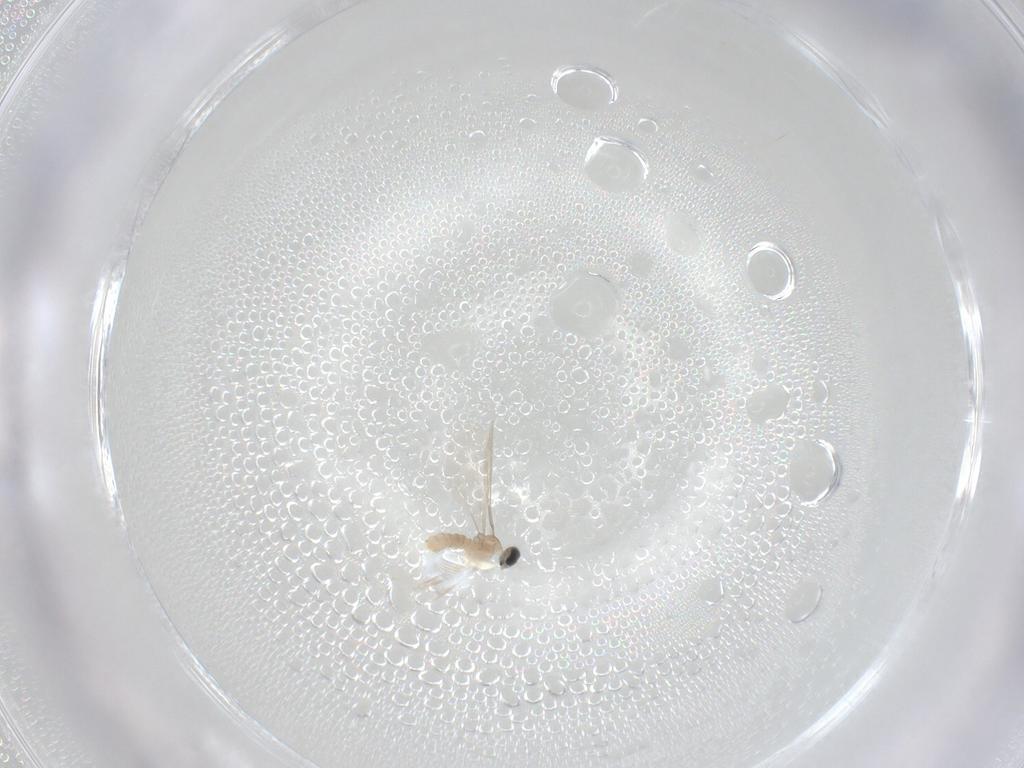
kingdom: Animalia
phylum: Arthropoda
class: Insecta
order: Diptera
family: Cecidomyiidae
